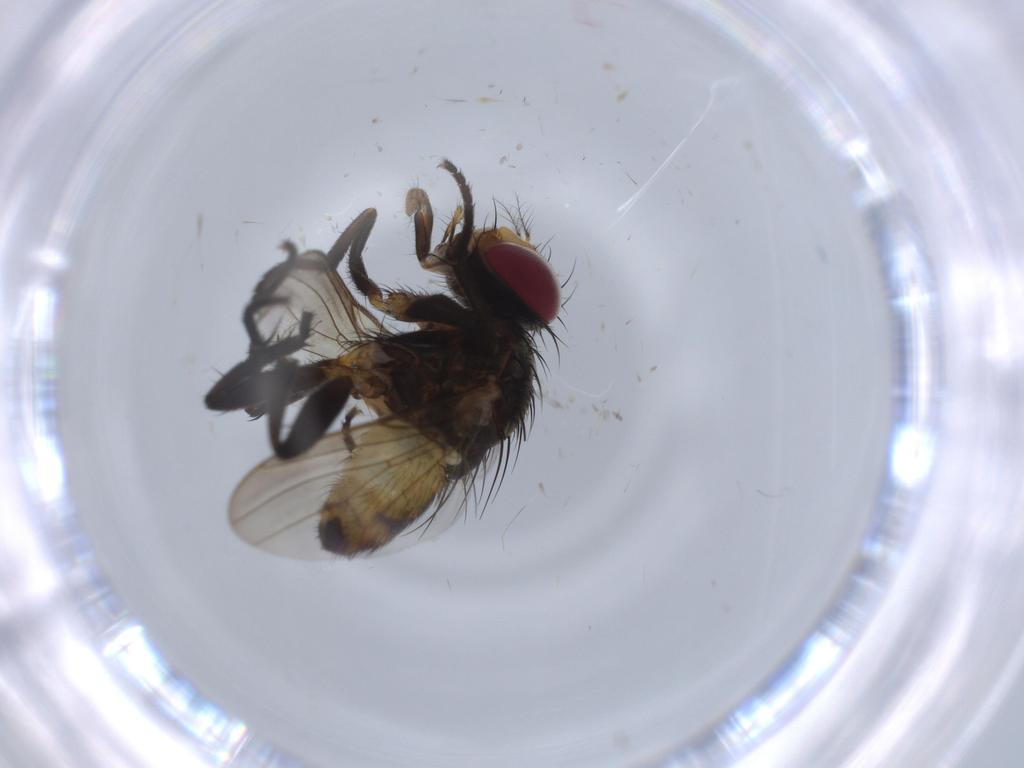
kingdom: Animalia
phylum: Arthropoda
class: Insecta
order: Diptera
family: Anthomyiidae
